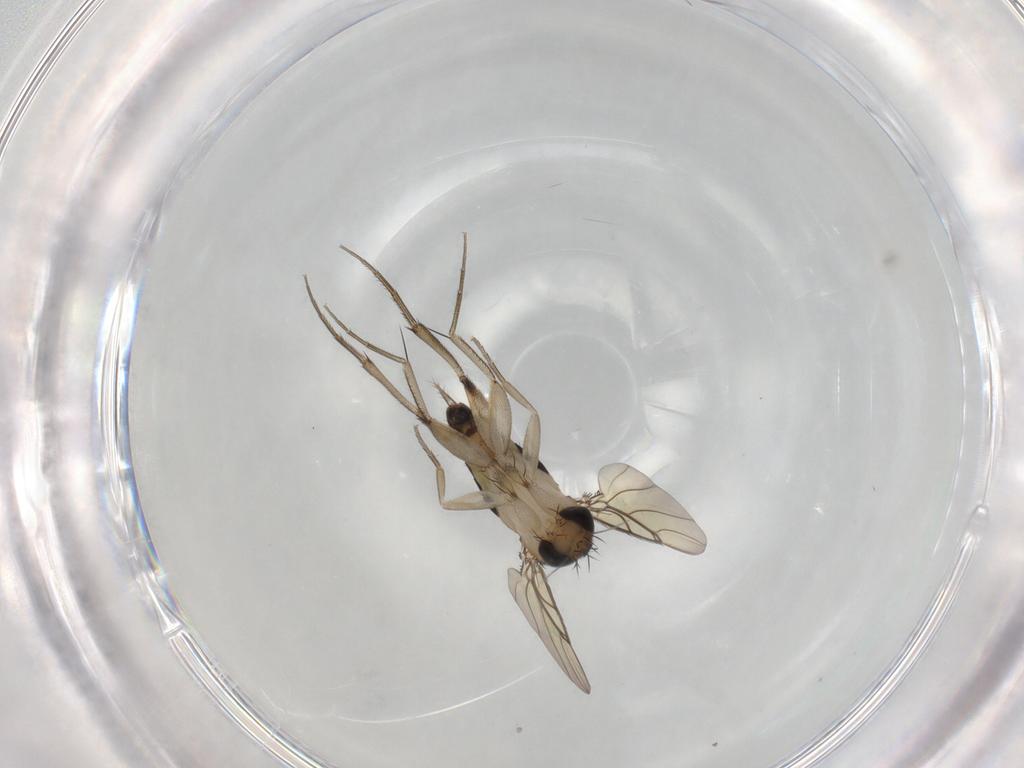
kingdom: Animalia
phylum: Arthropoda
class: Insecta
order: Diptera
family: Phoridae
